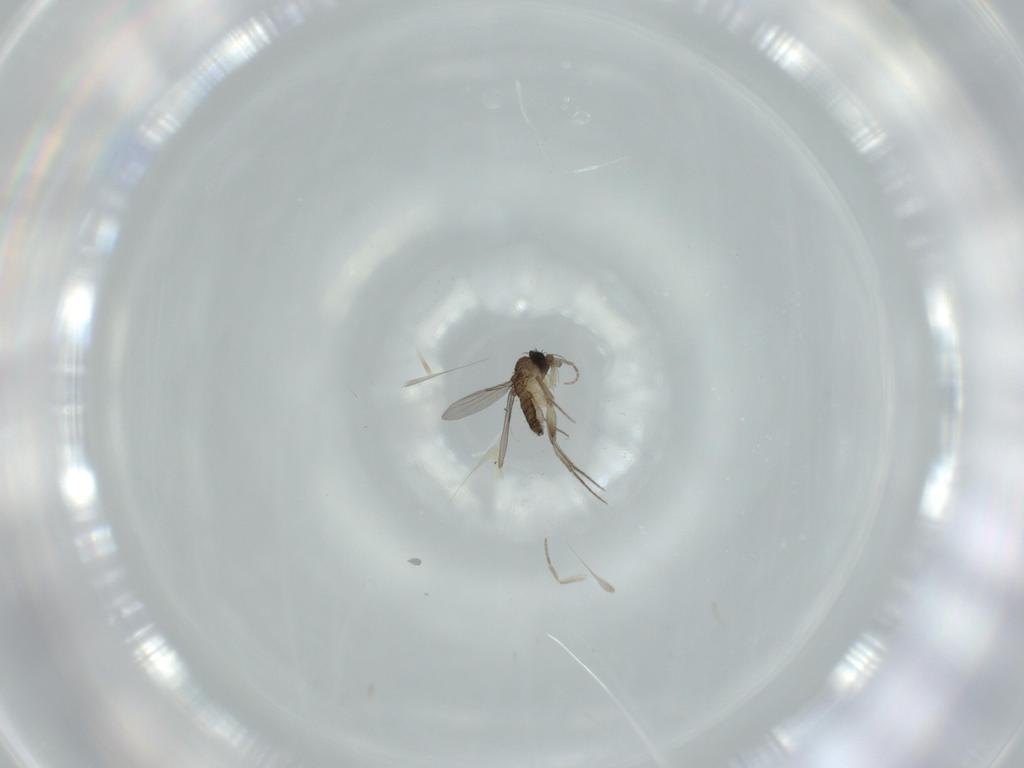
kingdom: Animalia
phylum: Arthropoda
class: Insecta
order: Diptera
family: Phoridae
